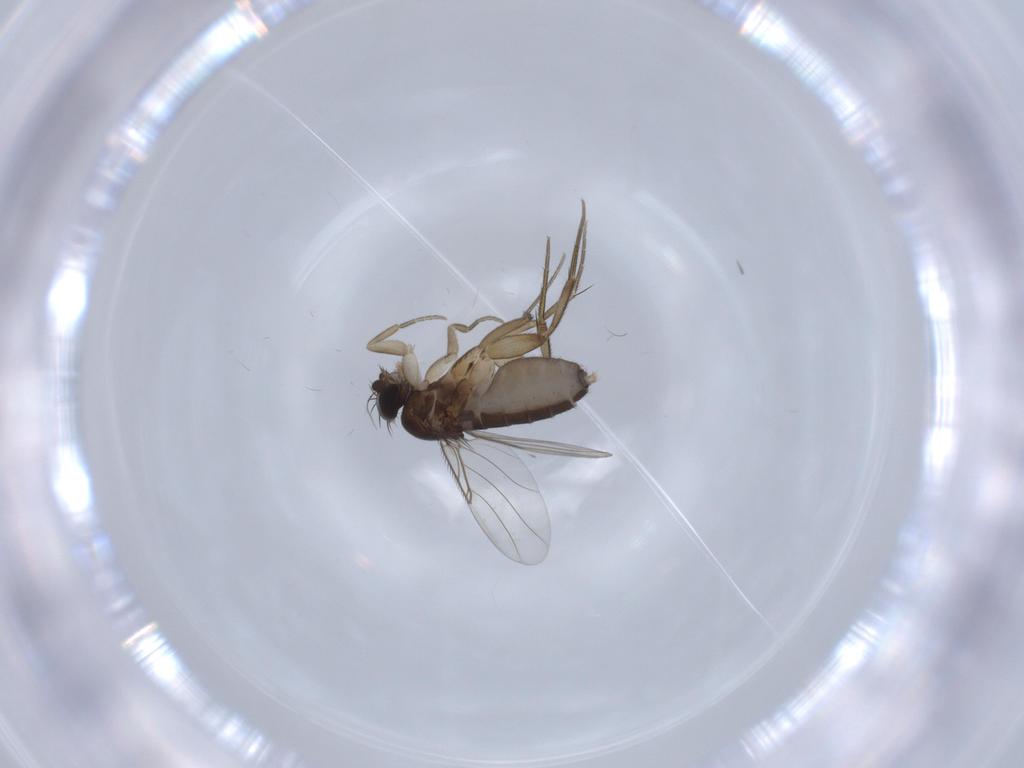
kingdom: Animalia
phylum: Arthropoda
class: Insecta
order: Diptera
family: Phoridae
